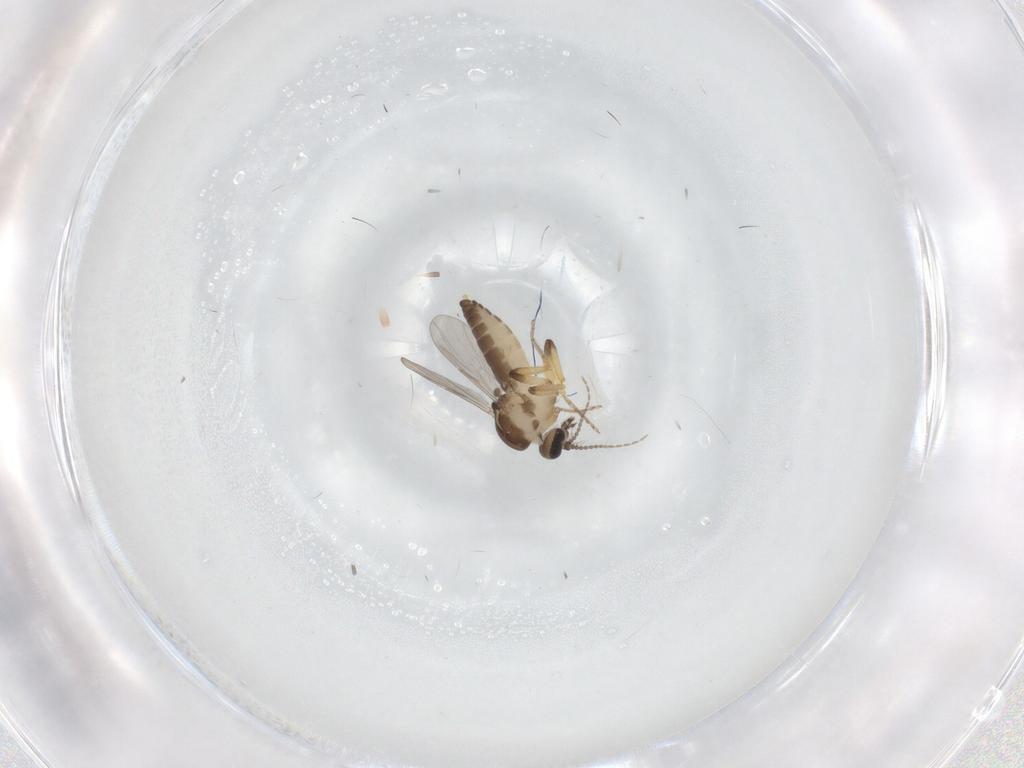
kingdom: Animalia
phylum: Arthropoda
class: Insecta
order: Diptera
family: Ceratopogonidae
